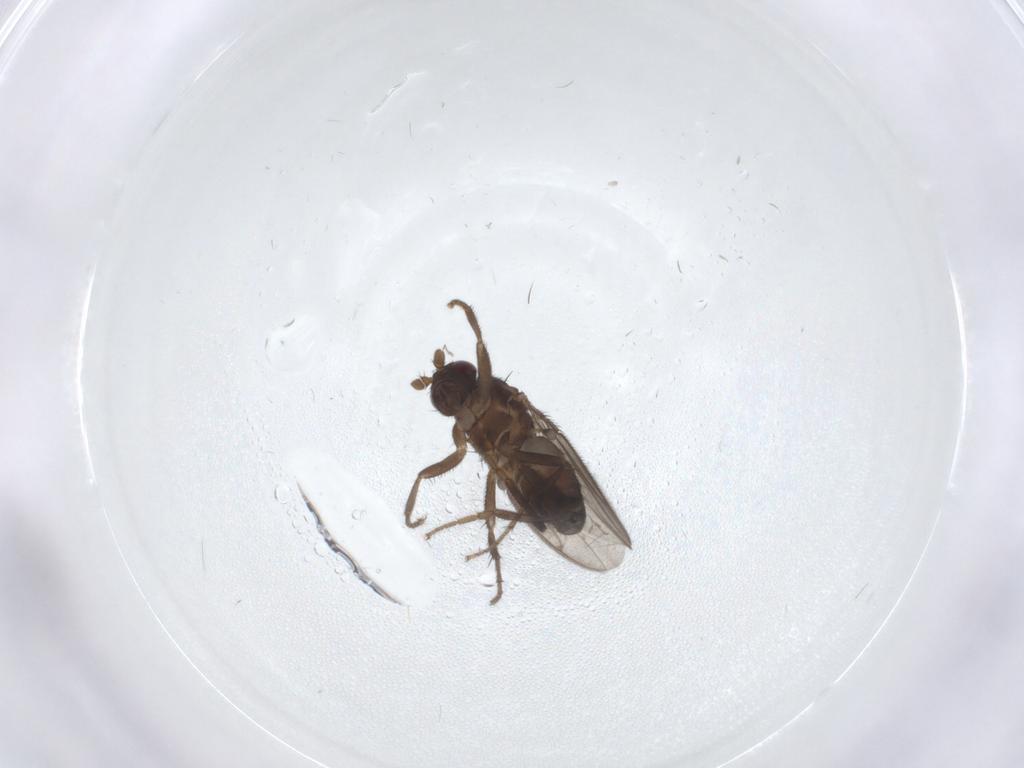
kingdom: Animalia
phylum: Arthropoda
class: Insecta
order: Diptera
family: Sphaeroceridae
